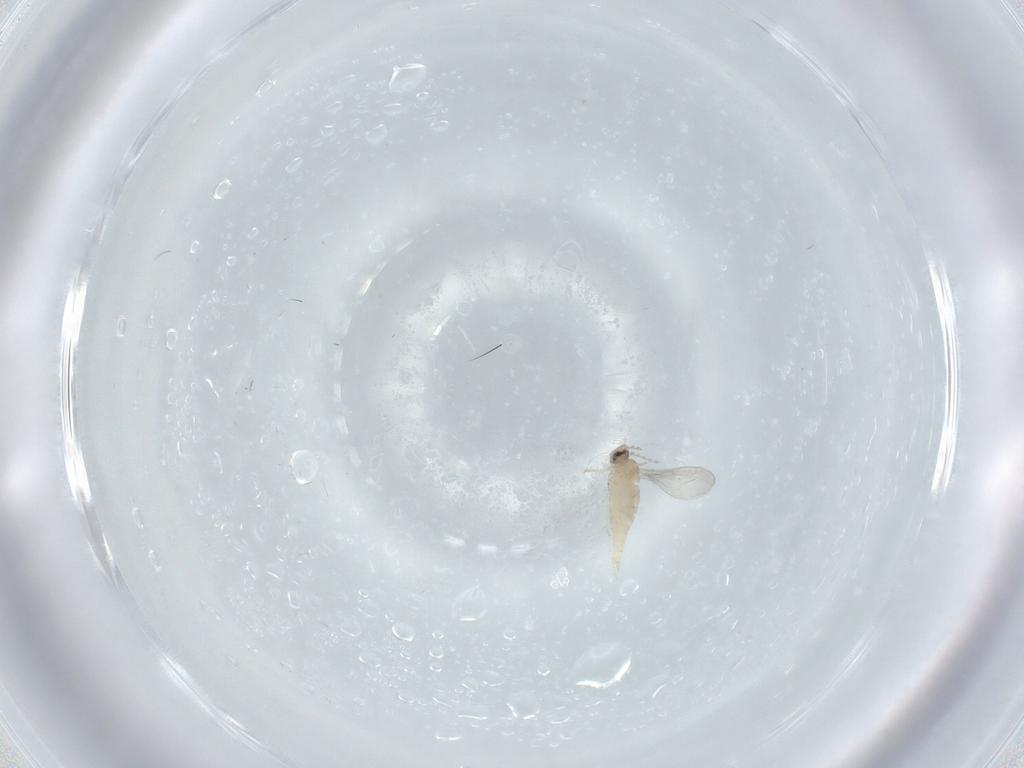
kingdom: Animalia
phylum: Arthropoda
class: Insecta
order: Diptera
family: Cecidomyiidae
